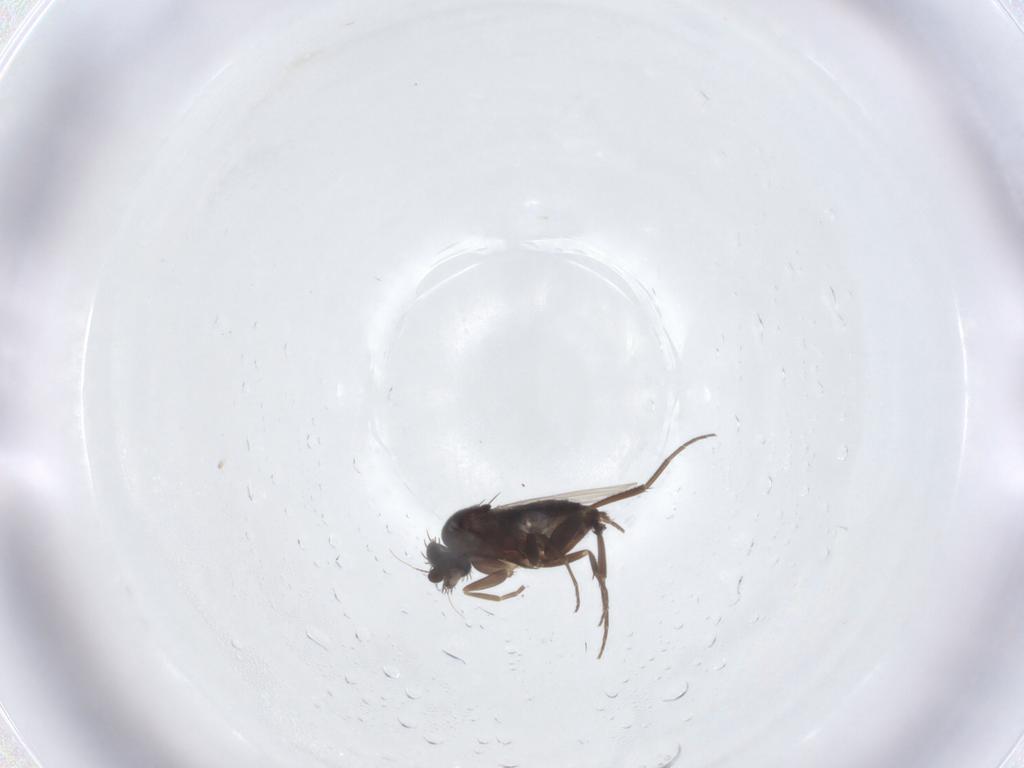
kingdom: Animalia
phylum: Arthropoda
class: Insecta
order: Diptera
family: Phoridae
